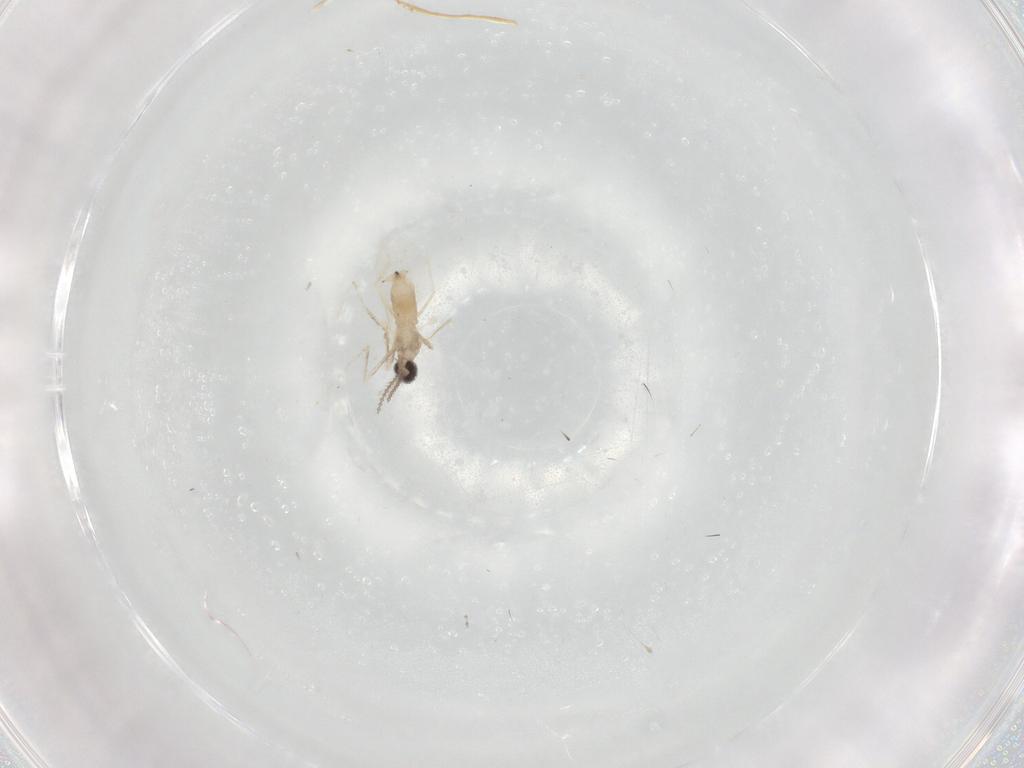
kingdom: Animalia
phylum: Arthropoda
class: Insecta
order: Diptera
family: Cecidomyiidae
